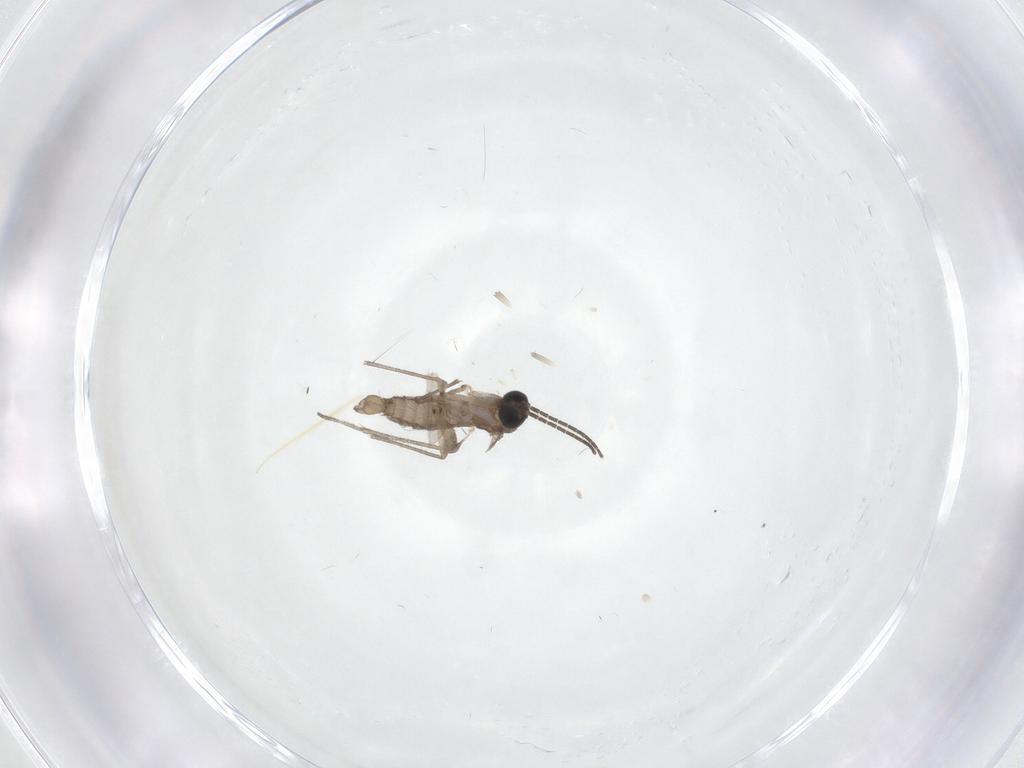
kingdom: Animalia
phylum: Arthropoda
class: Insecta
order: Diptera
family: Sciaridae
